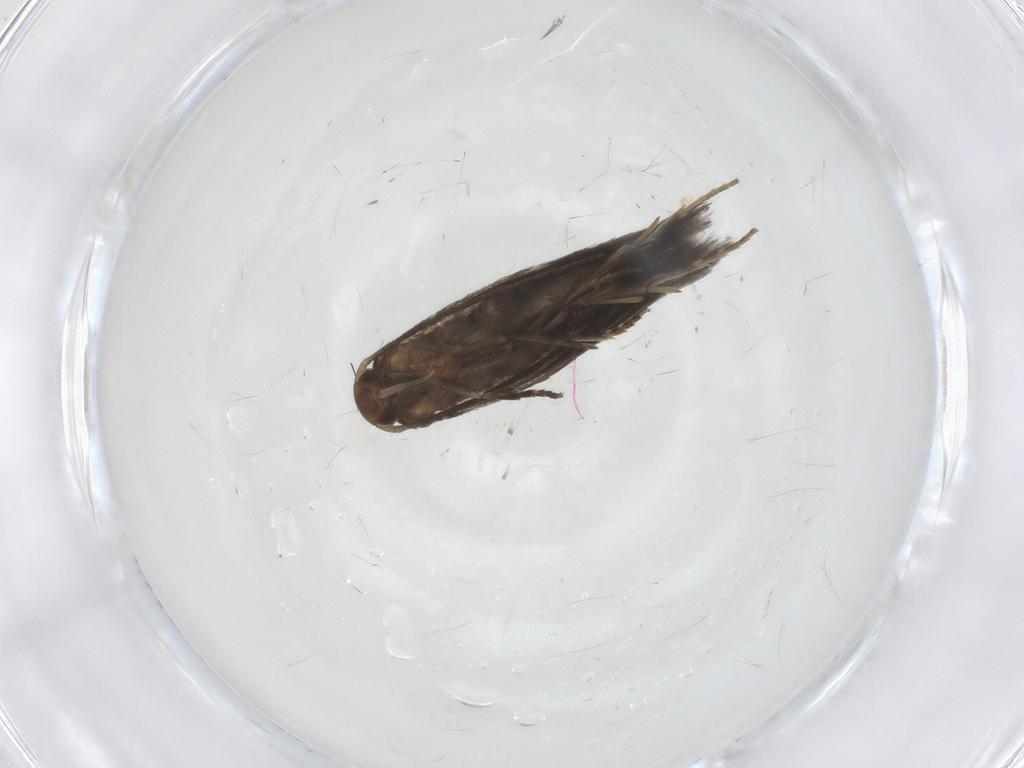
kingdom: Animalia
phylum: Arthropoda
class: Insecta
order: Lepidoptera
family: Elachistidae
